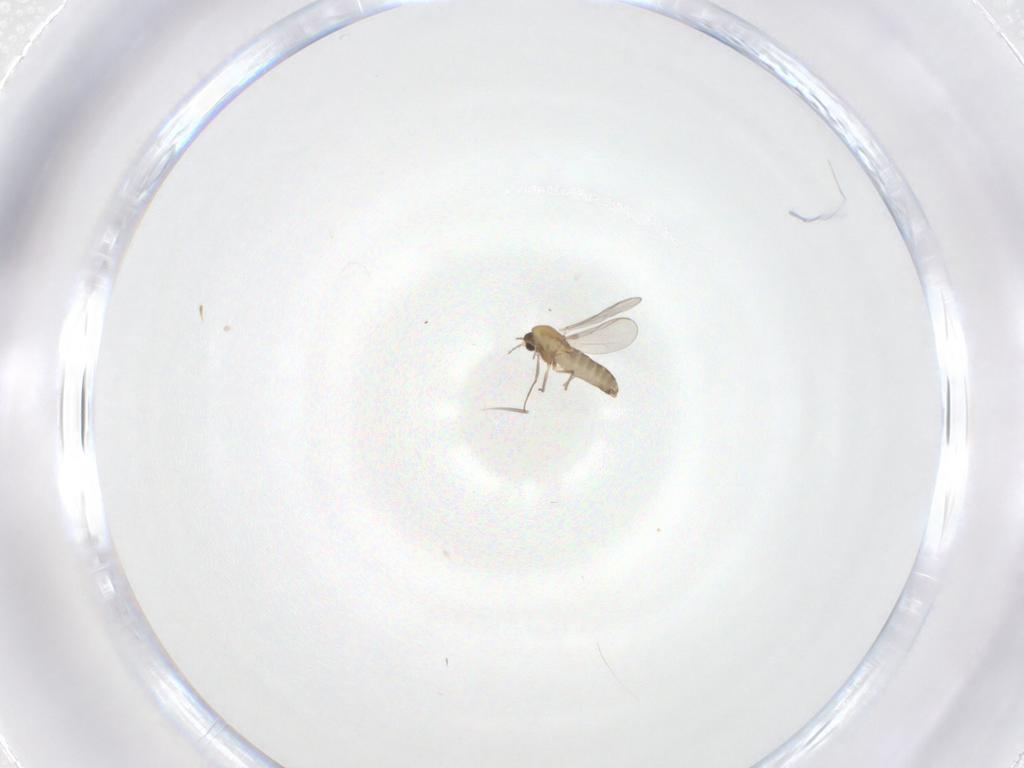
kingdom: Animalia
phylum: Arthropoda
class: Insecta
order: Diptera
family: Chironomidae
